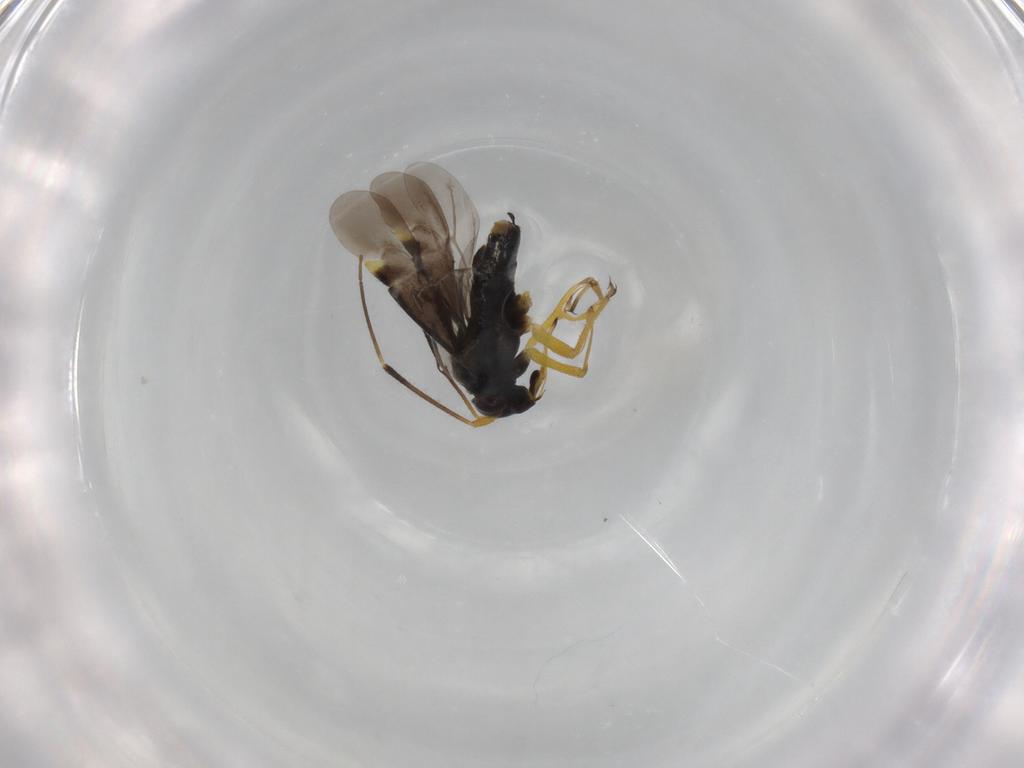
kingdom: Animalia
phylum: Arthropoda
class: Insecta
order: Hemiptera
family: Miridae
